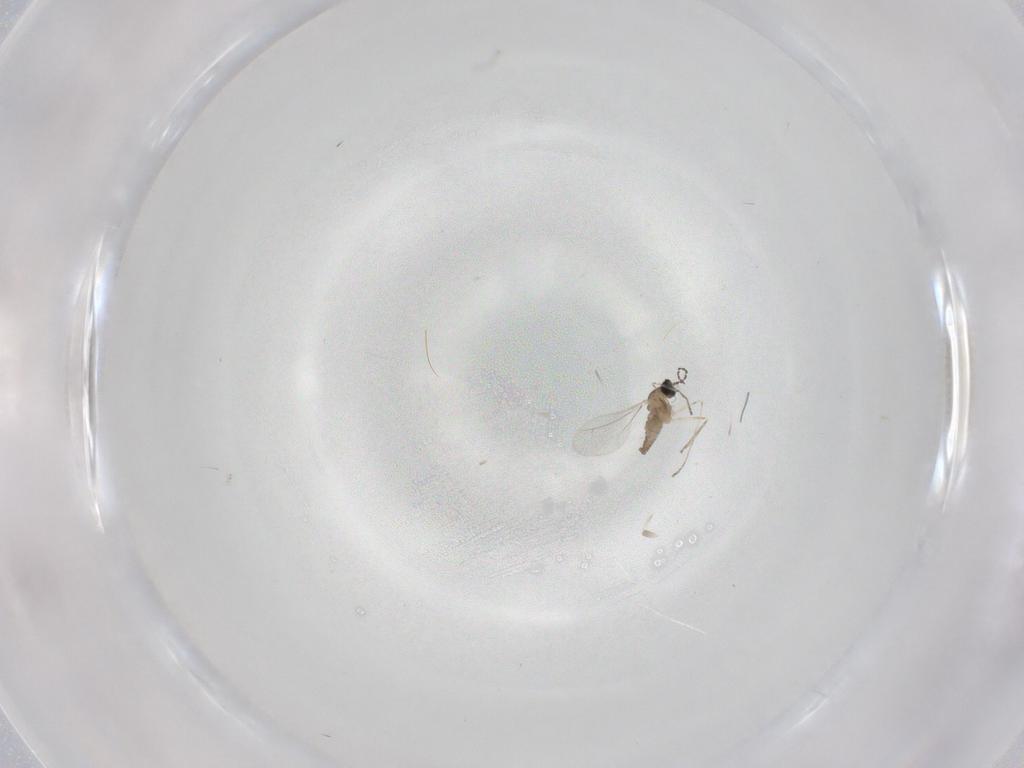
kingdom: Animalia
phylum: Arthropoda
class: Insecta
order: Diptera
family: Cecidomyiidae
